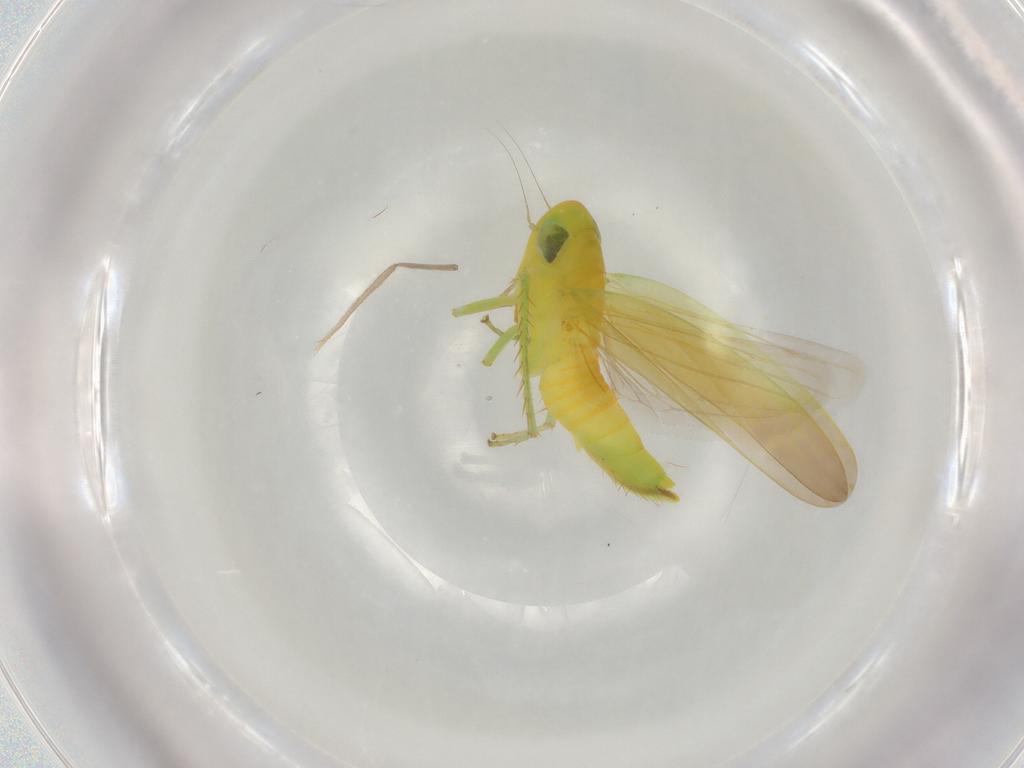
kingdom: Animalia
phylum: Arthropoda
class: Insecta
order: Hemiptera
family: Cicadellidae
